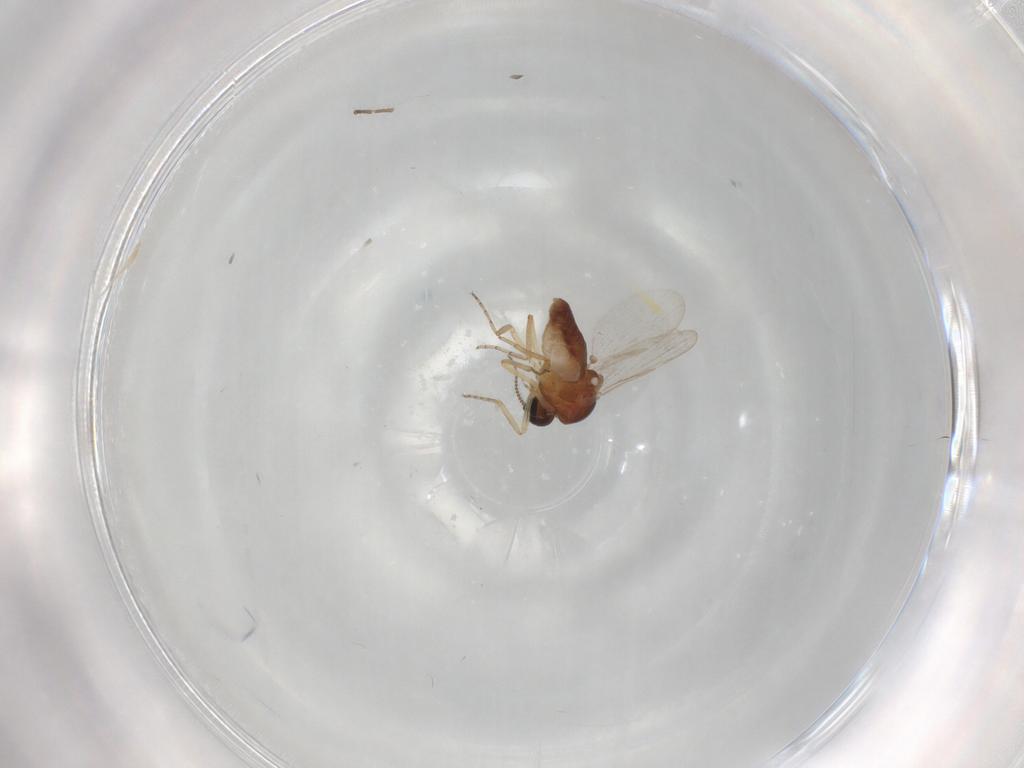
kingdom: Animalia
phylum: Arthropoda
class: Insecta
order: Diptera
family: Ceratopogonidae
